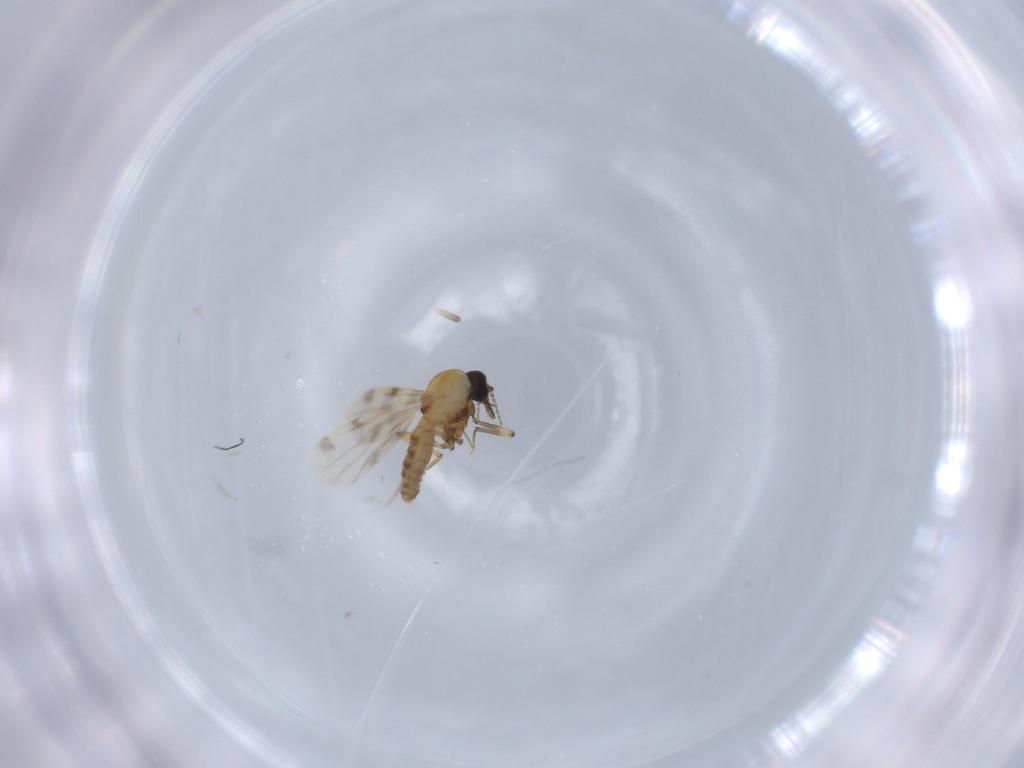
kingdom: Animalia
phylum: Arthropoda
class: Insecta
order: Diptera
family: Cecidomyiidae
